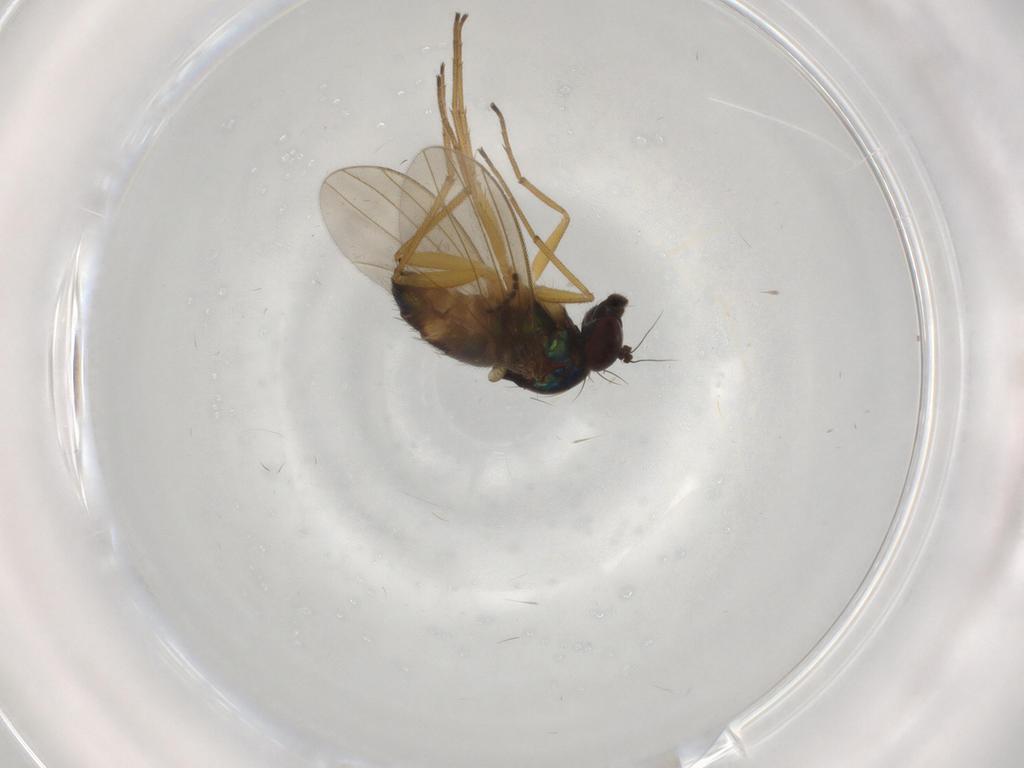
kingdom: Animalia
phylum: Arthropoda
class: Insecta
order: Diptera
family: Dolichopodidae
